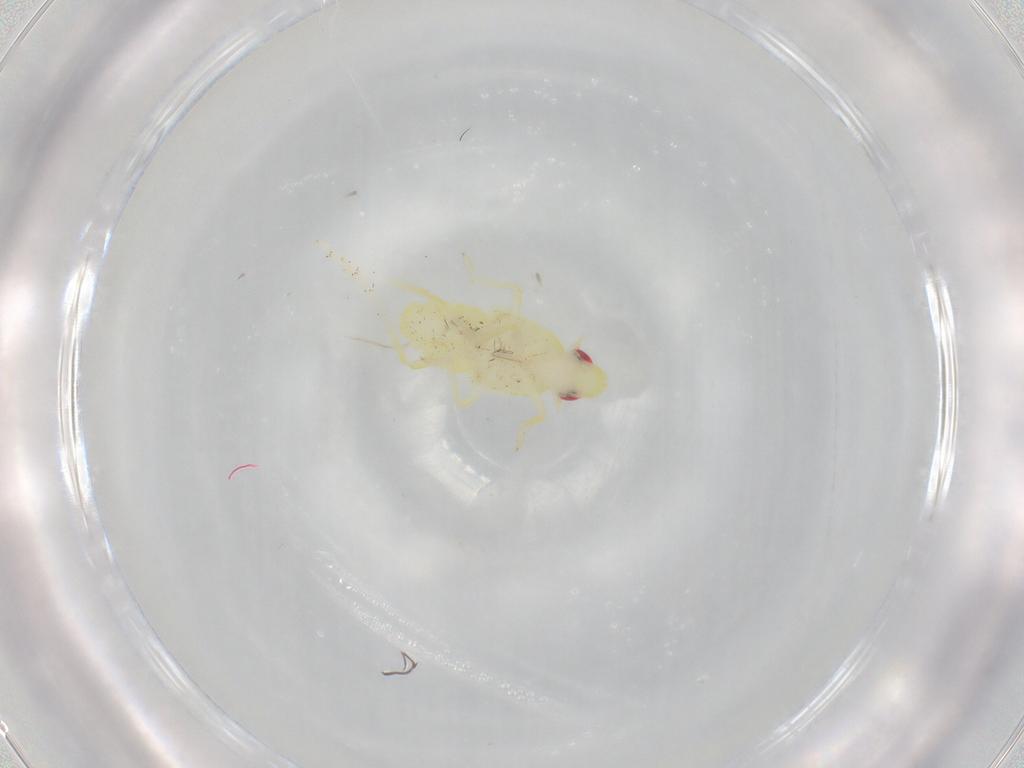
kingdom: Animalia
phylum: Arthropoda
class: Insecta
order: Hemiptera
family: Tropiduchidae
